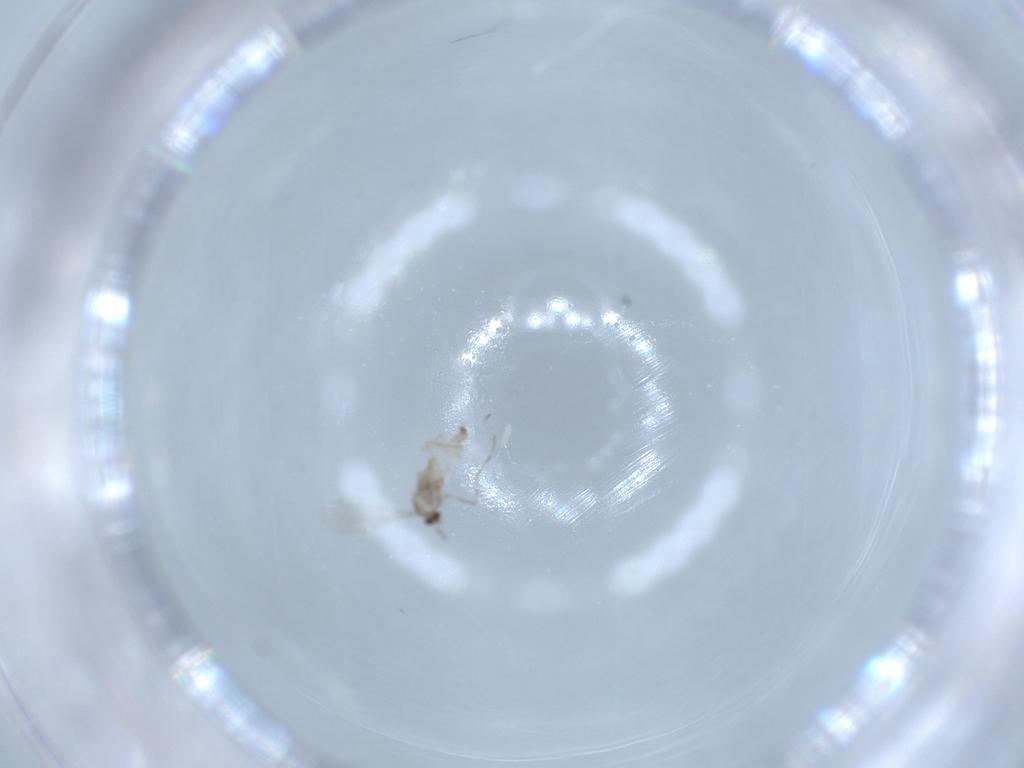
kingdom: Animalia
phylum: Arthropoda
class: Insecta
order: Diptera
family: Cecidomyiidae
